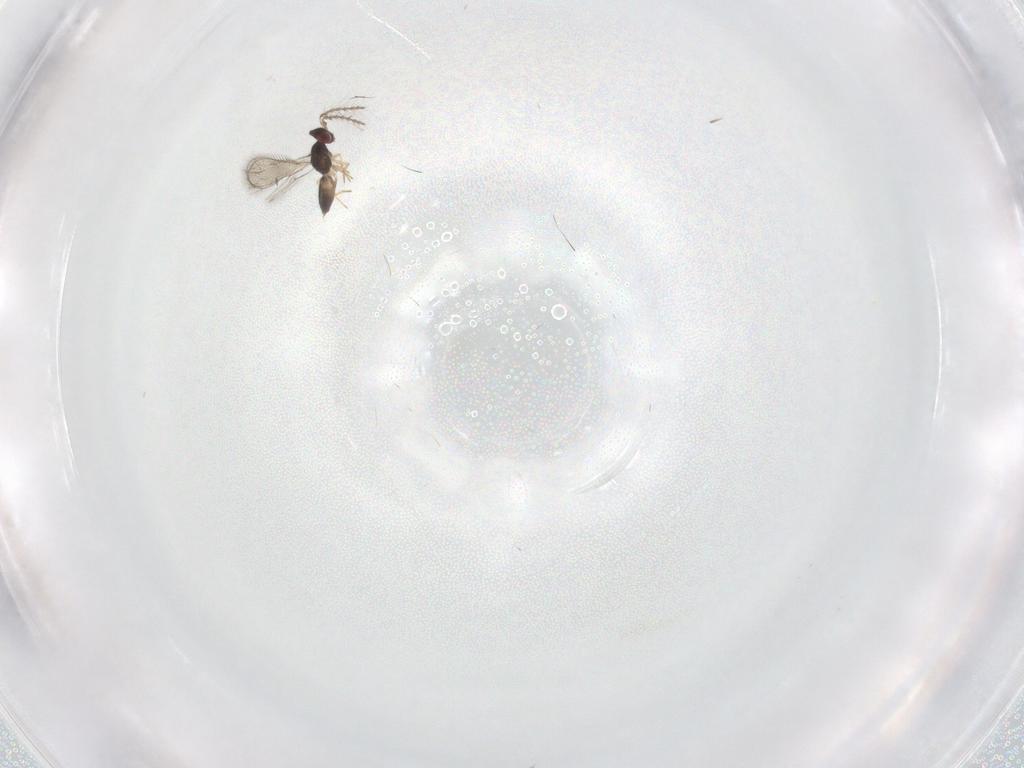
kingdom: Animalia
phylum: Arthropoda
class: Insecta
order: Hymenoptera
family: Eulophidae
